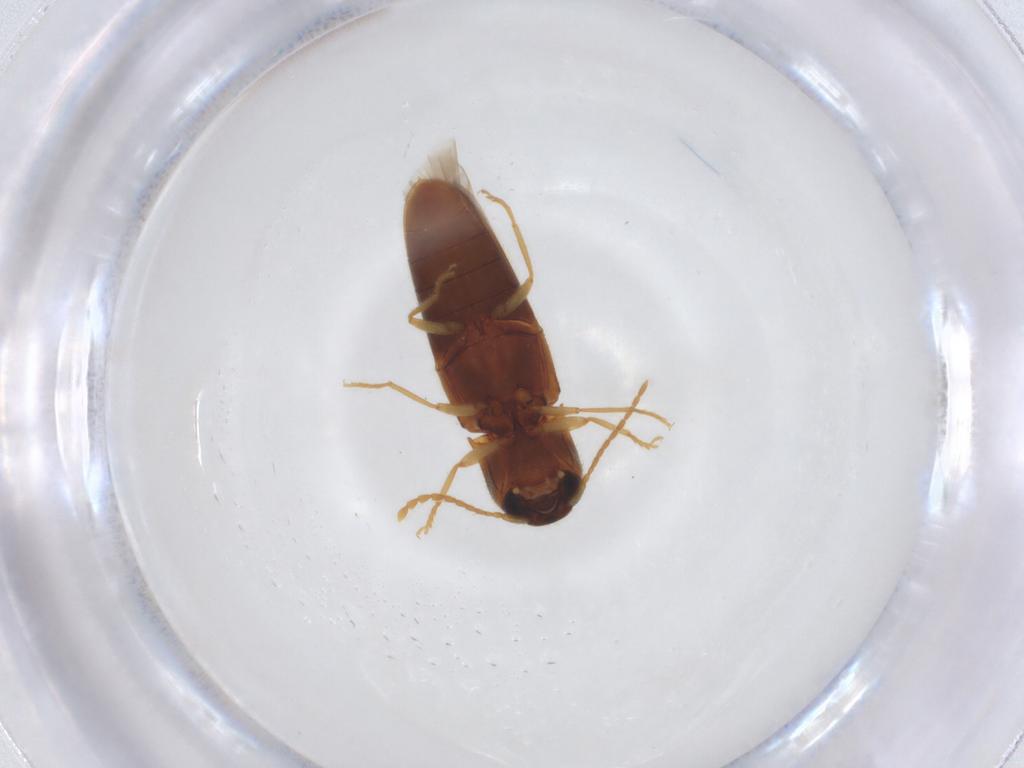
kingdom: Animalia
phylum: Arthropoda
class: Insecta
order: Coleoptera
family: Elateridae
